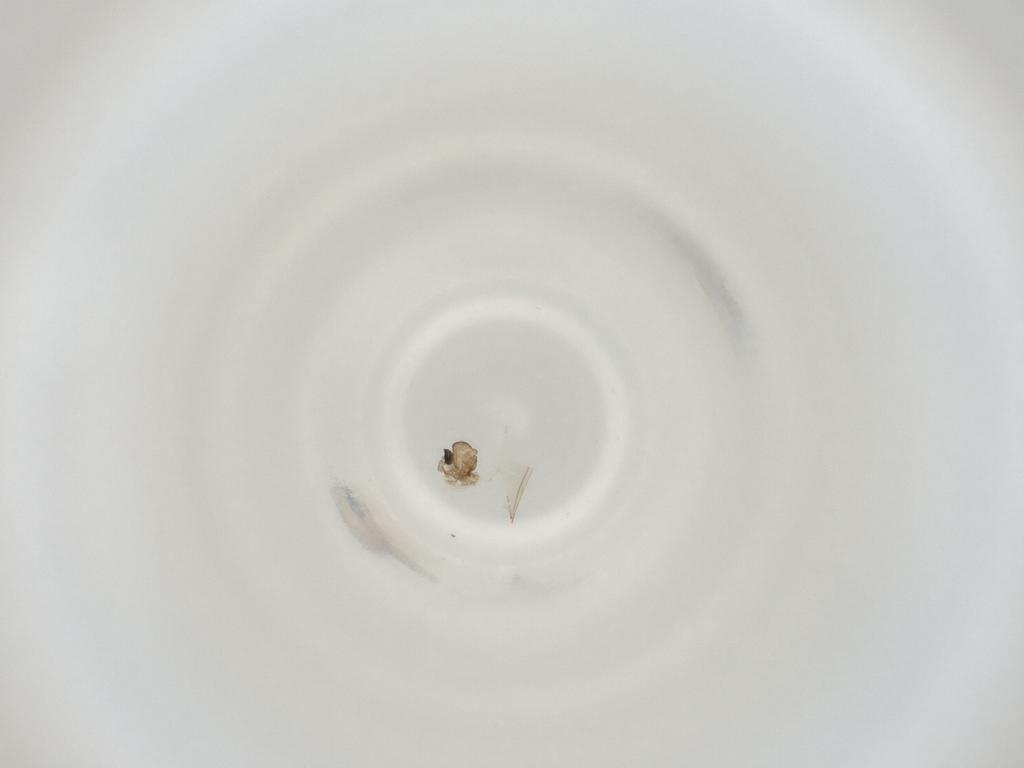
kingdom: Animalia
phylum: Arthropoda
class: Insecta
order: Diptera
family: Cecidomyiidae
